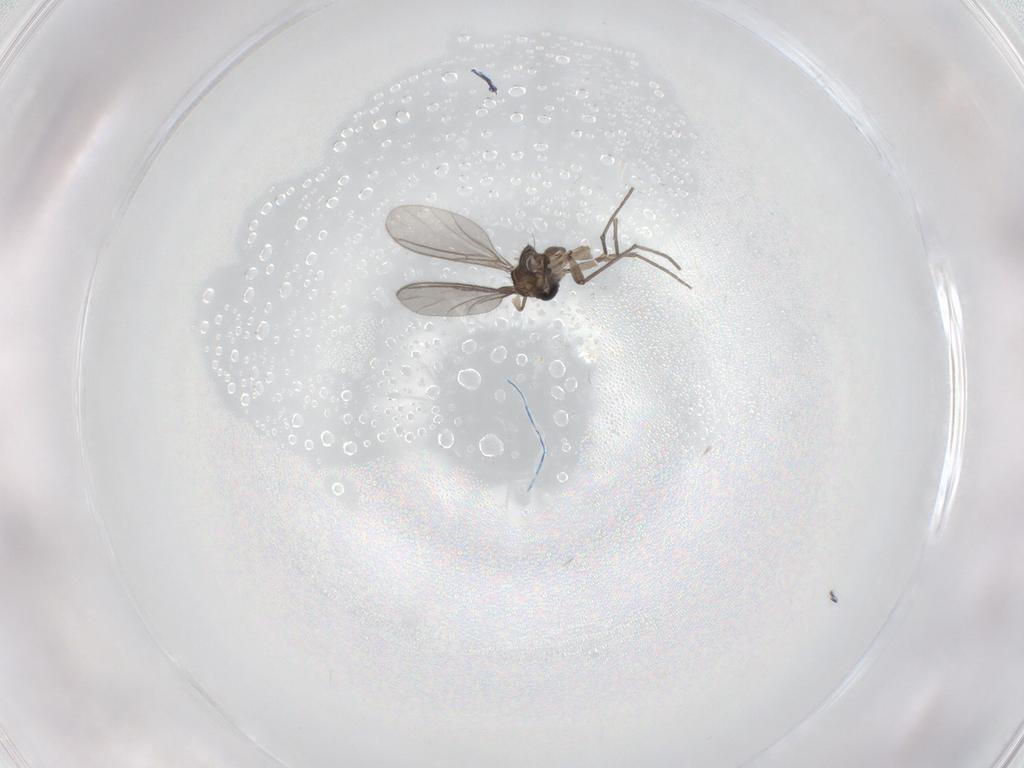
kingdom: Animalia
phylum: Arthropoda
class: Insecta
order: Diptera
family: Sciaridae
